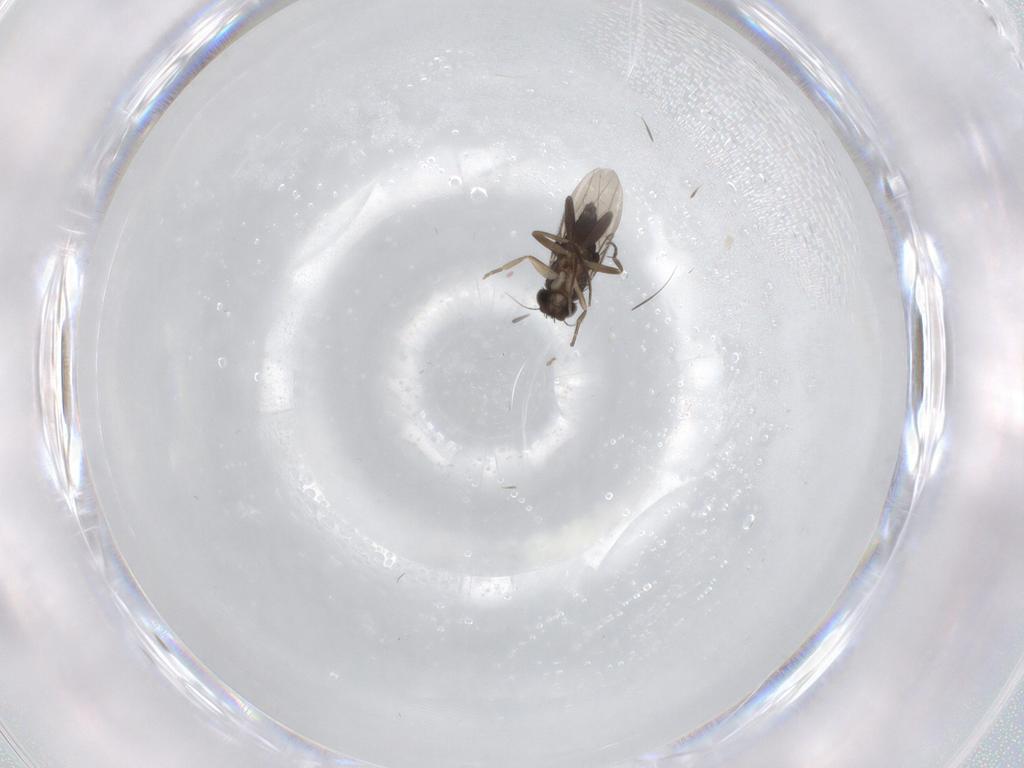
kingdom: Animalia
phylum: Arthropoda
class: Insecta
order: Diptera
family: Phoridae
